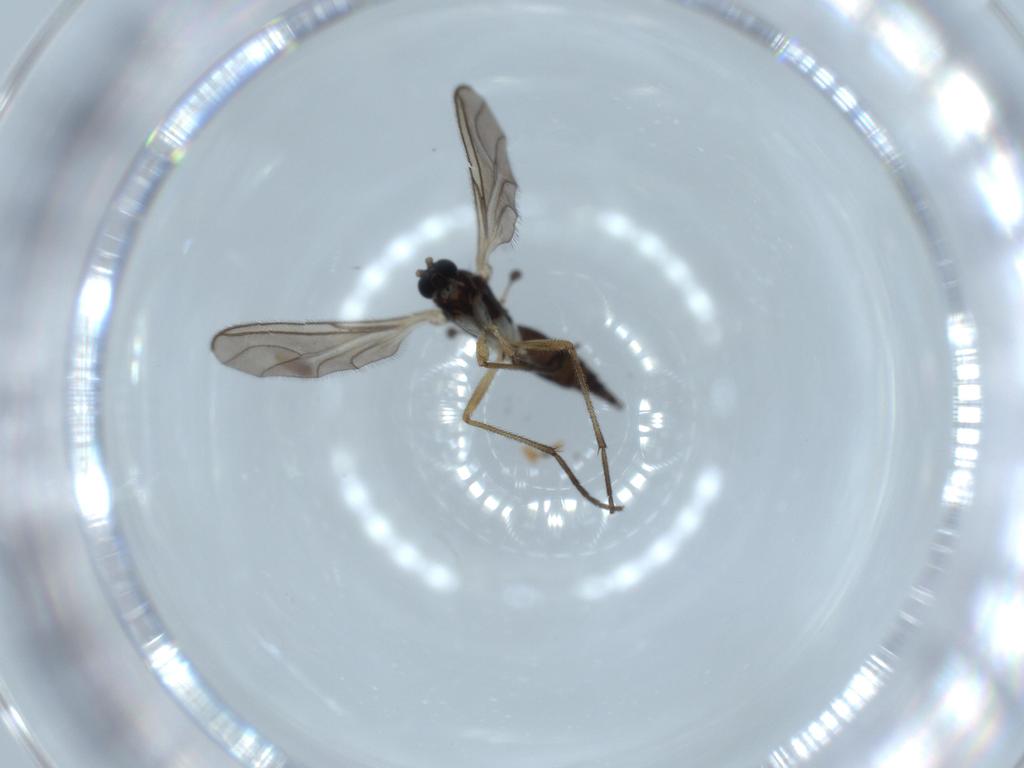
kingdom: Animalia
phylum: Arthropoda
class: Insecta
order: Diptera
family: Sciaridae
